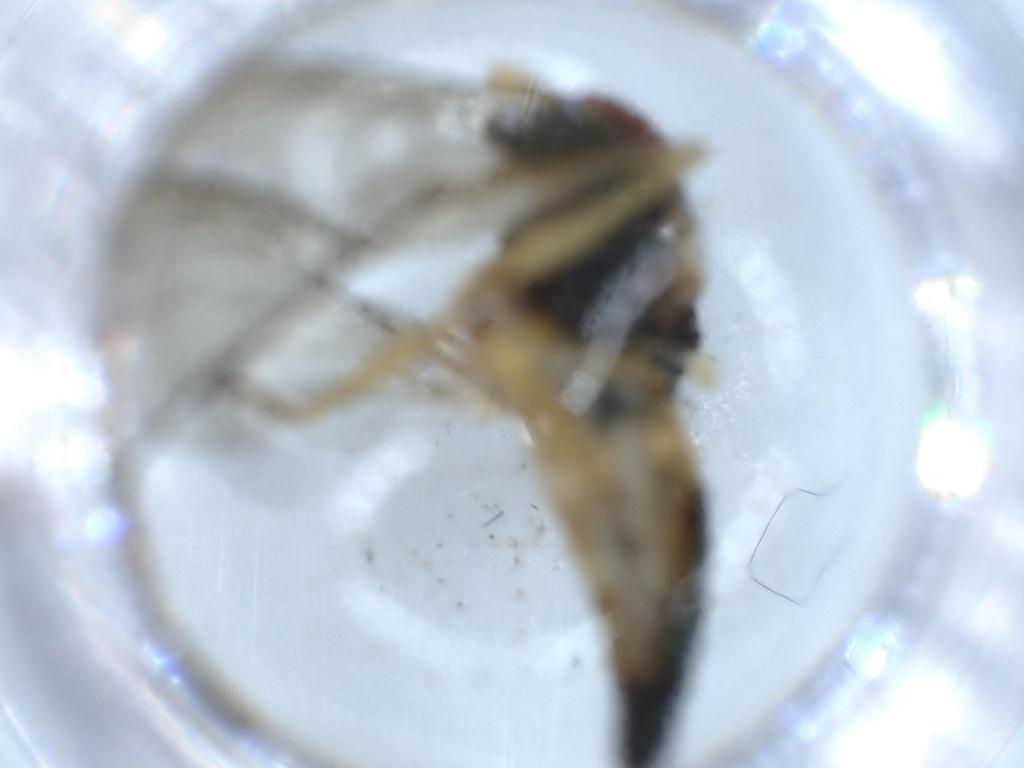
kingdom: Animalia
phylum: Arthropoda
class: Insecta
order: Diptera
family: Dolichopodidae
